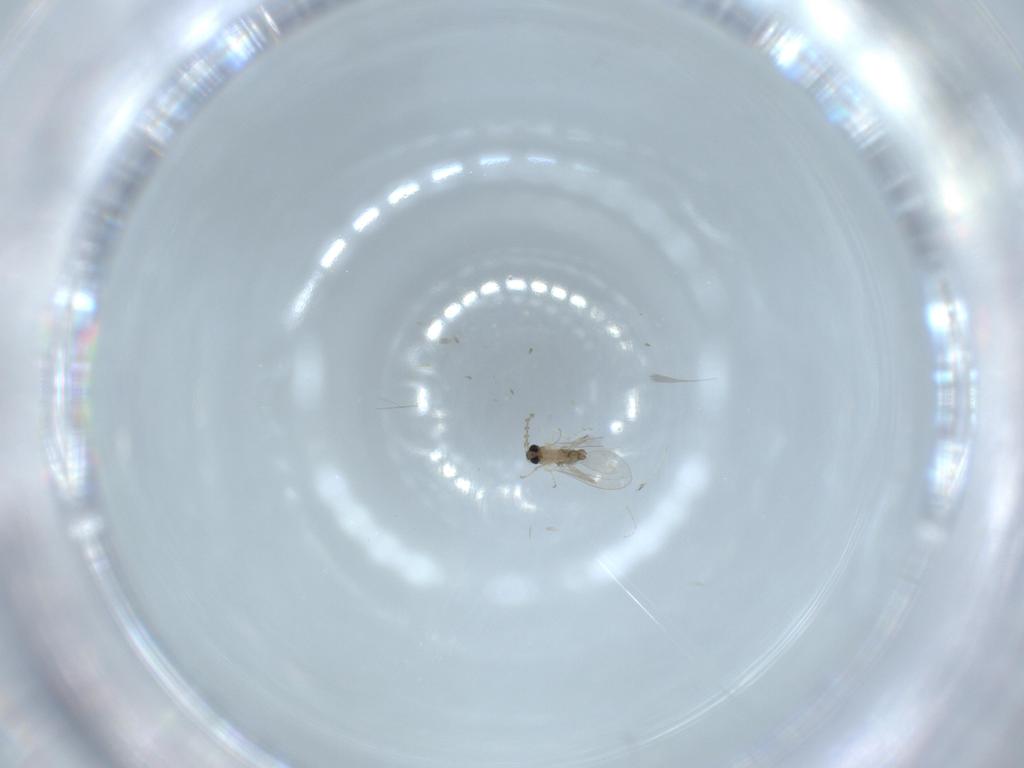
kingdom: Animalia
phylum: Arthropoda
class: Insecta
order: Diptera
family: Cecidomyiidae
